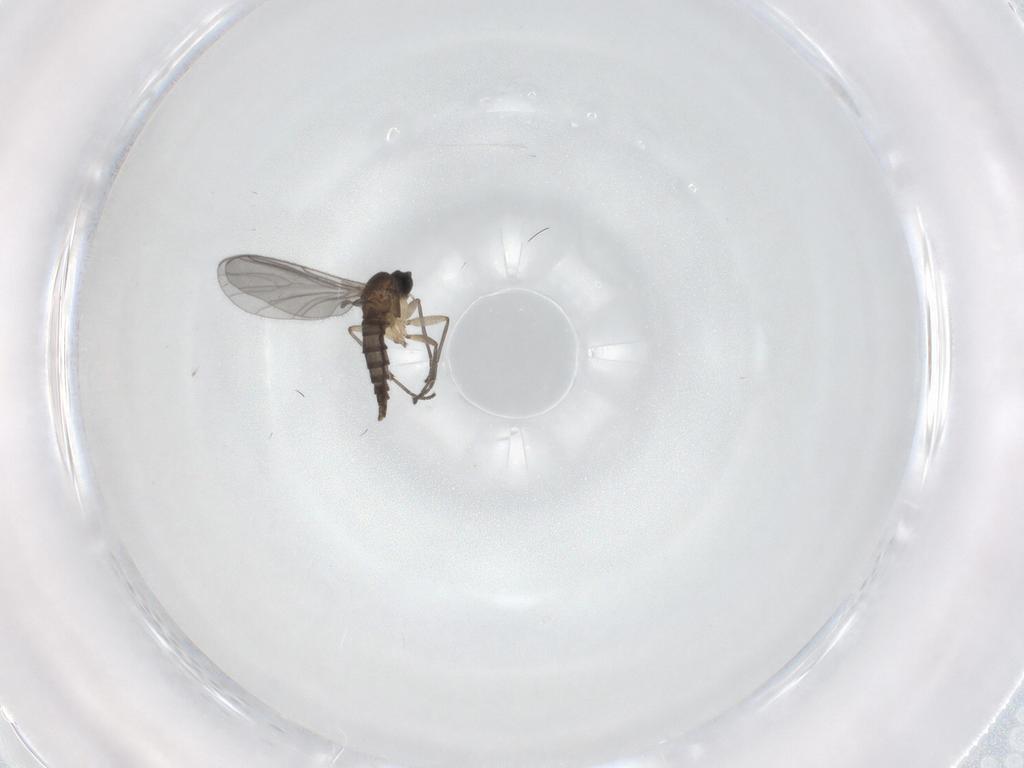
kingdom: Animalia
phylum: Arthropoda
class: Insecta
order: Diptera
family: Sciaridae
